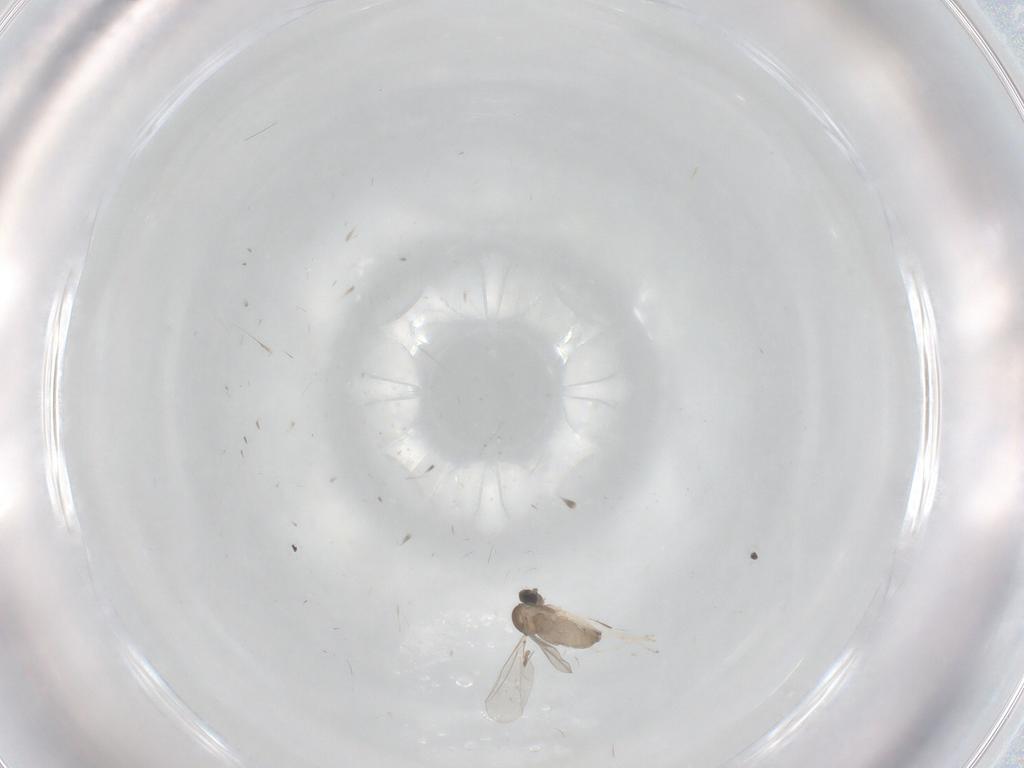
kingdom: Animalia
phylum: Arthropoda
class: Insecta
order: Diptera
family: Cecidomyiidae
